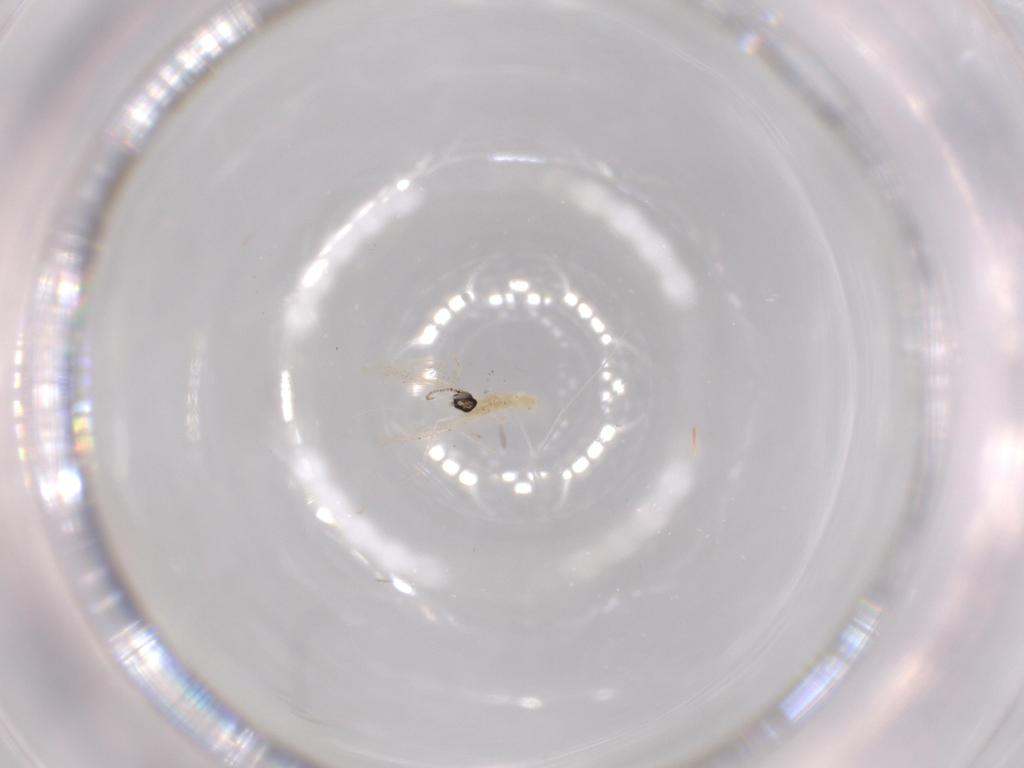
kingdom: Animalia
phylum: Arthropoda
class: Insecta
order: Diptera
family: Cecidomyiidae
